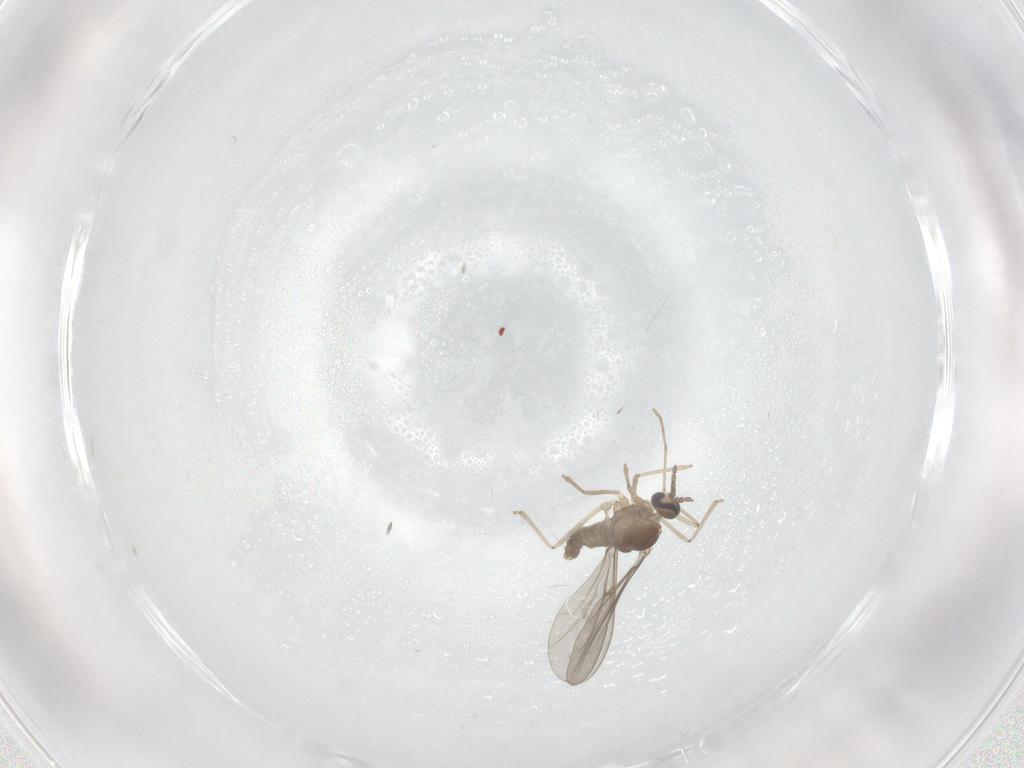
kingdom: Animalia
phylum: Arthropoda
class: Insecta
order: Diptera
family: Cecidomyiidae
